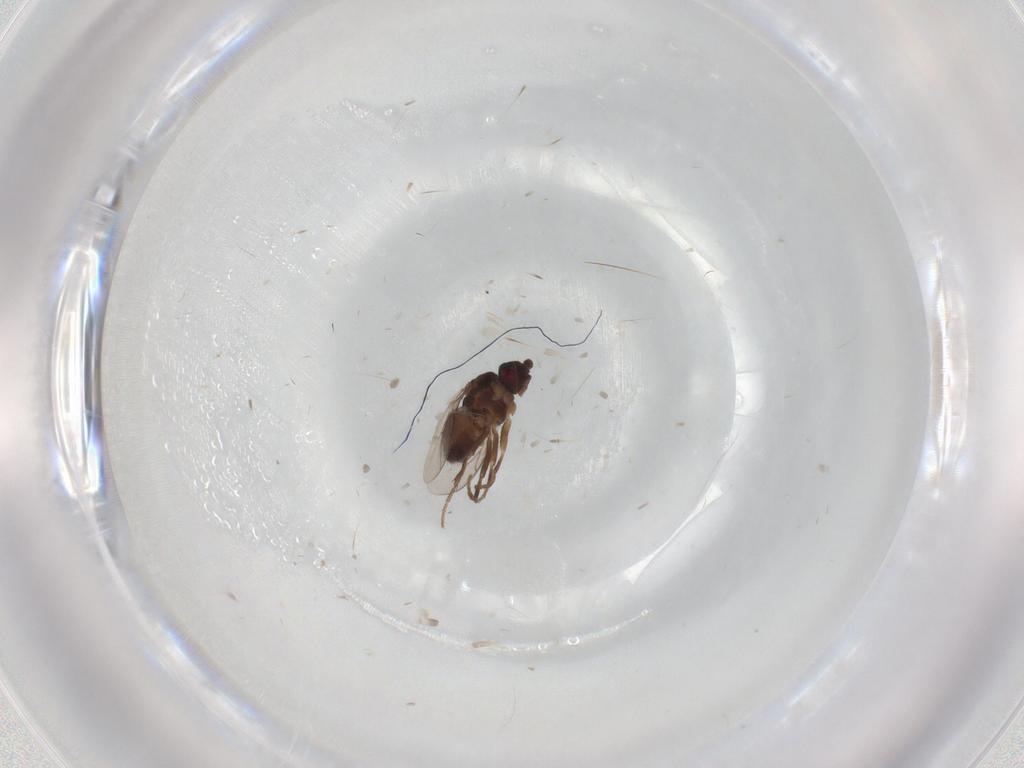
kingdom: Animalia
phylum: Arthropoda
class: Insecta
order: Diptera
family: Sphaeroceridae
